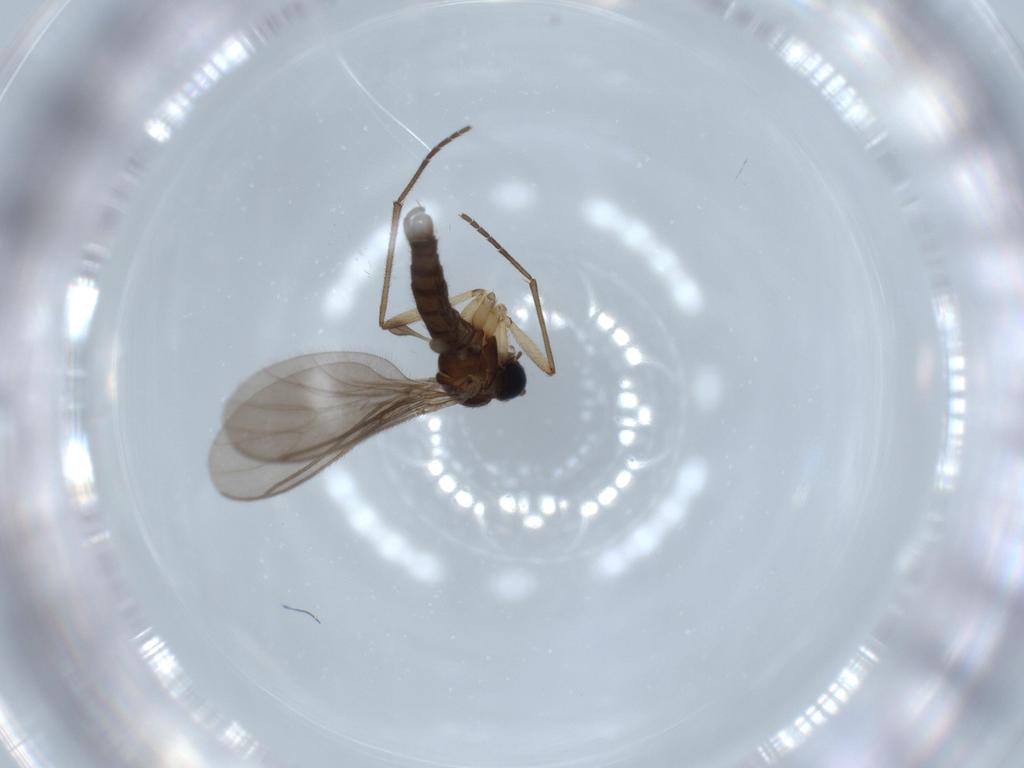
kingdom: Animalia
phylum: Arthropoda
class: Insecta
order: Diptera
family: Sciaridae
